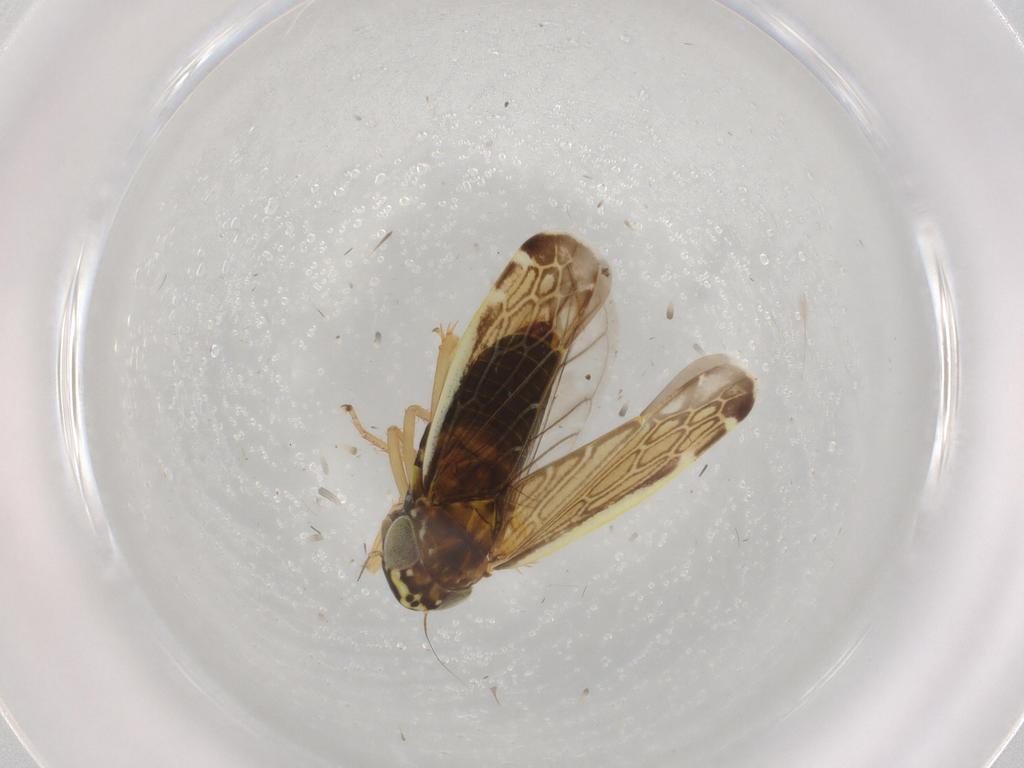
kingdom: Animalia
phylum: Arthropoda
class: Insecta
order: Hemiptera
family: Cicadellidae
